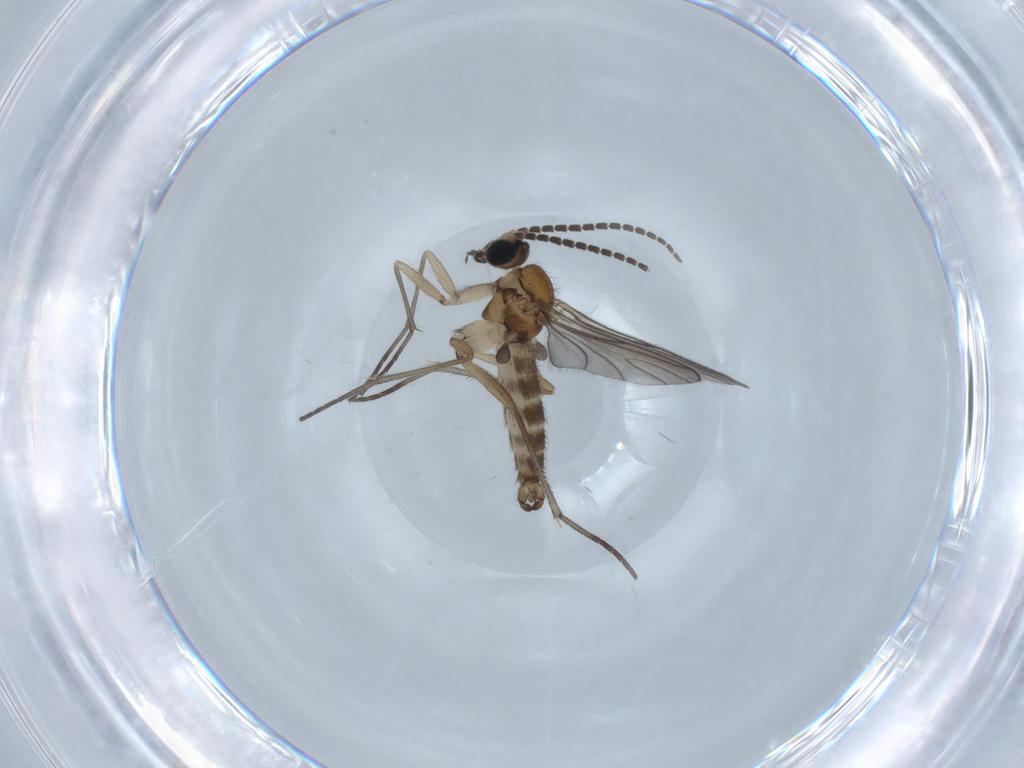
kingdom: Animalia
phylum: Arthropoda
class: Insecta
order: Diptera
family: Sciaridae
